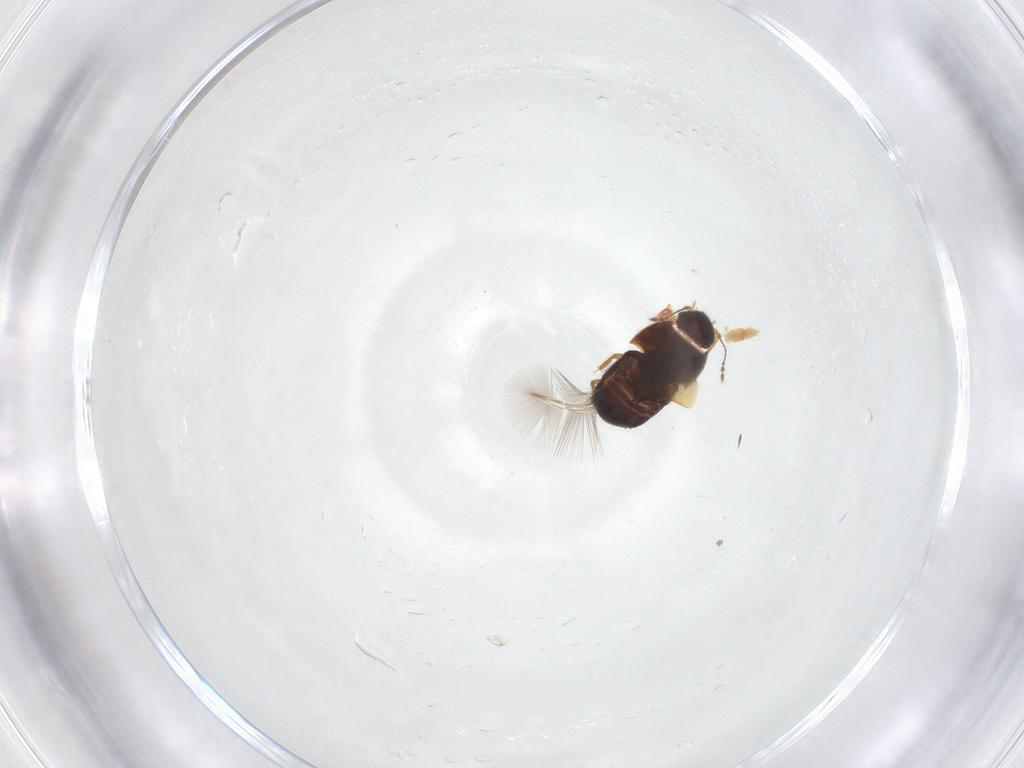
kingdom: Animalia
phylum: Arthropoda
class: Insecta
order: Coleoptera
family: Chrysomelidae
